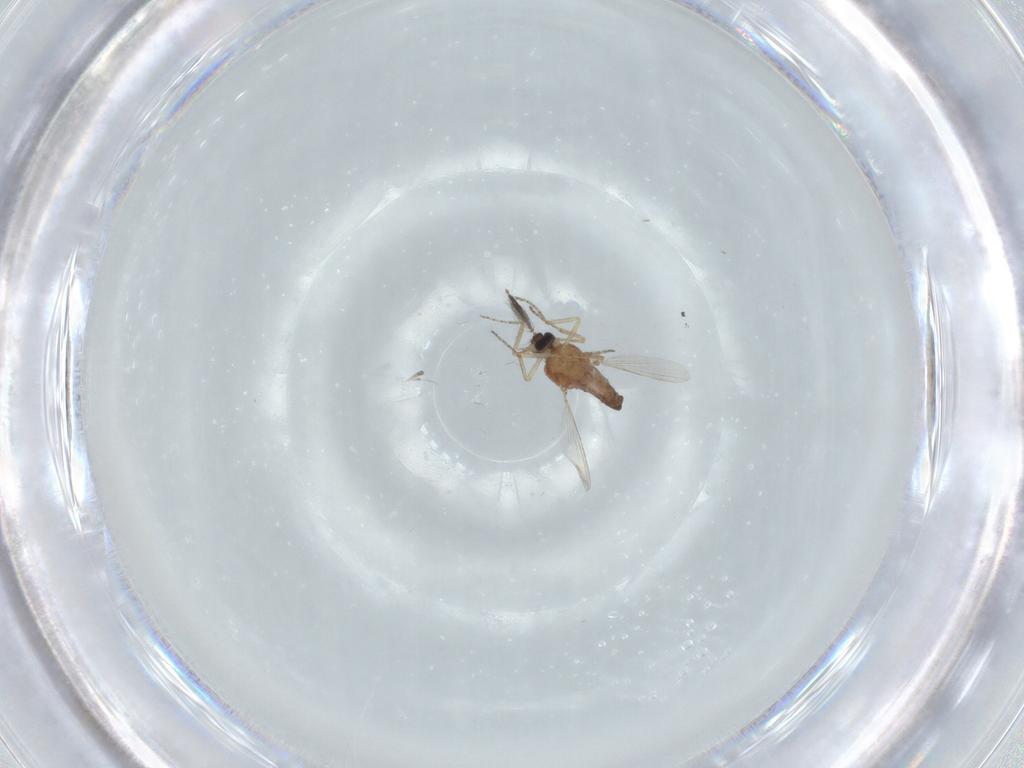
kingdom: Animalia
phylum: Arthropoda
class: Insecta
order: Diptera
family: Ceratopogonidae
